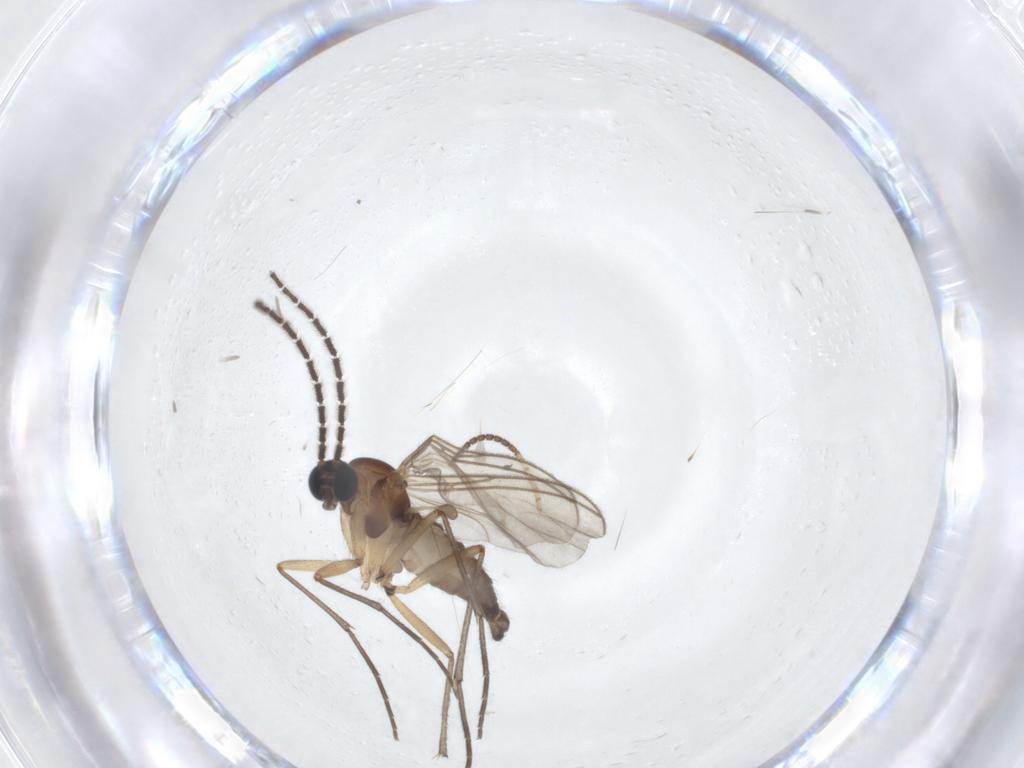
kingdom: Animalia
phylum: Arthropoda
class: Insecta
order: Diptera
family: Sciaridae
